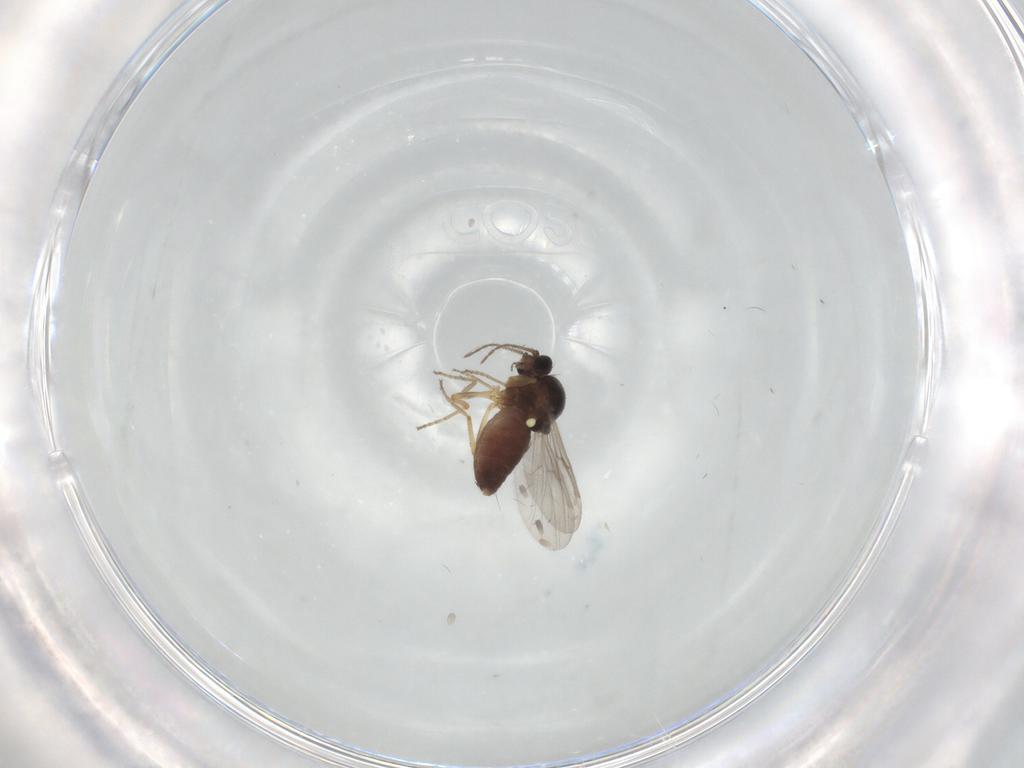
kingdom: Animalia
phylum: Arthropoda
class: Insecta
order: Diptera
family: Ceratopogonidae
